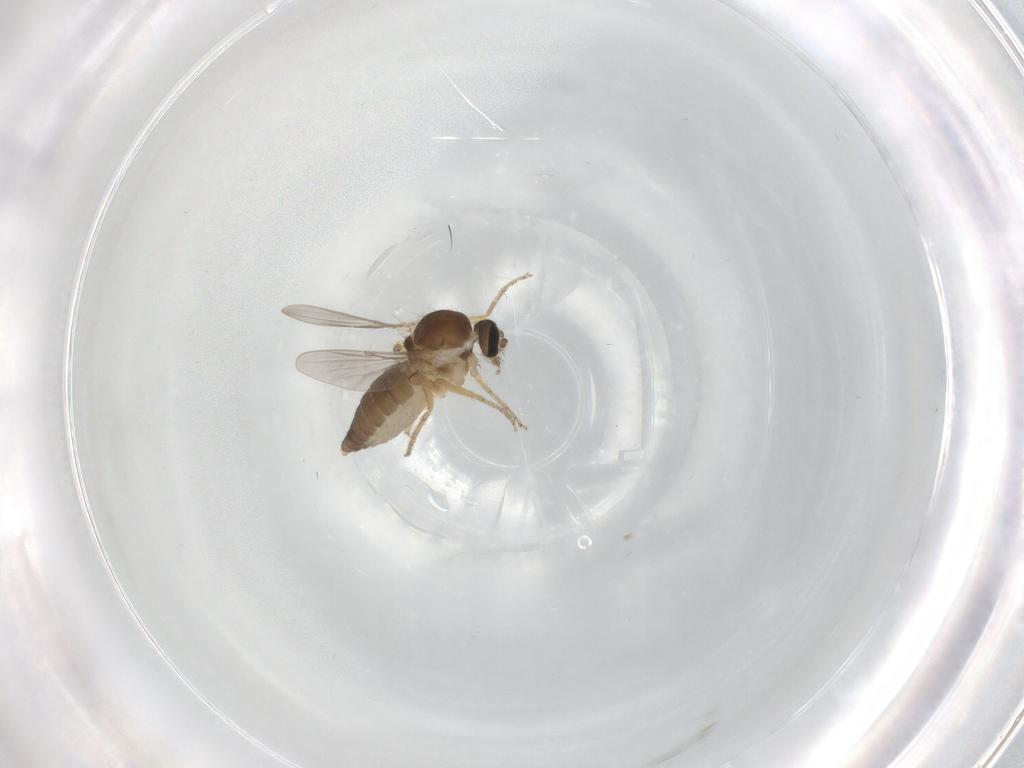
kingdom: Animalia
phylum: Arthropoda
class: Insecta
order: Diptera
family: Ceratopogonidae
